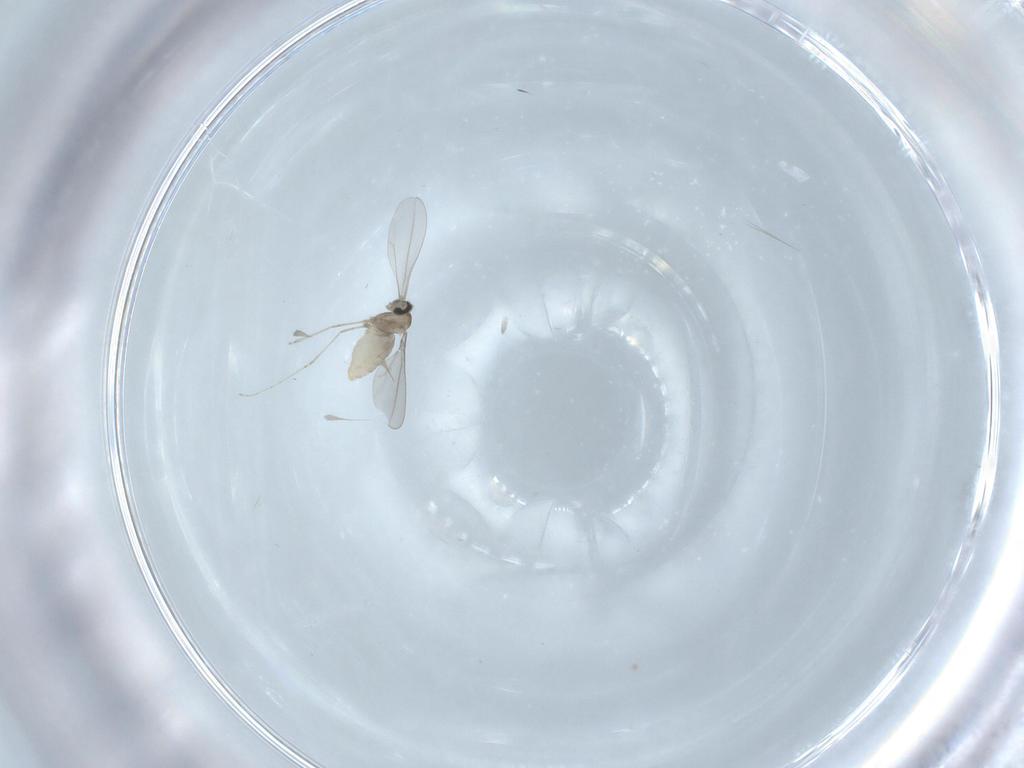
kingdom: Animalia
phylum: Arthropoda
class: Insecta
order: Diptera
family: Cecidomyiidae
